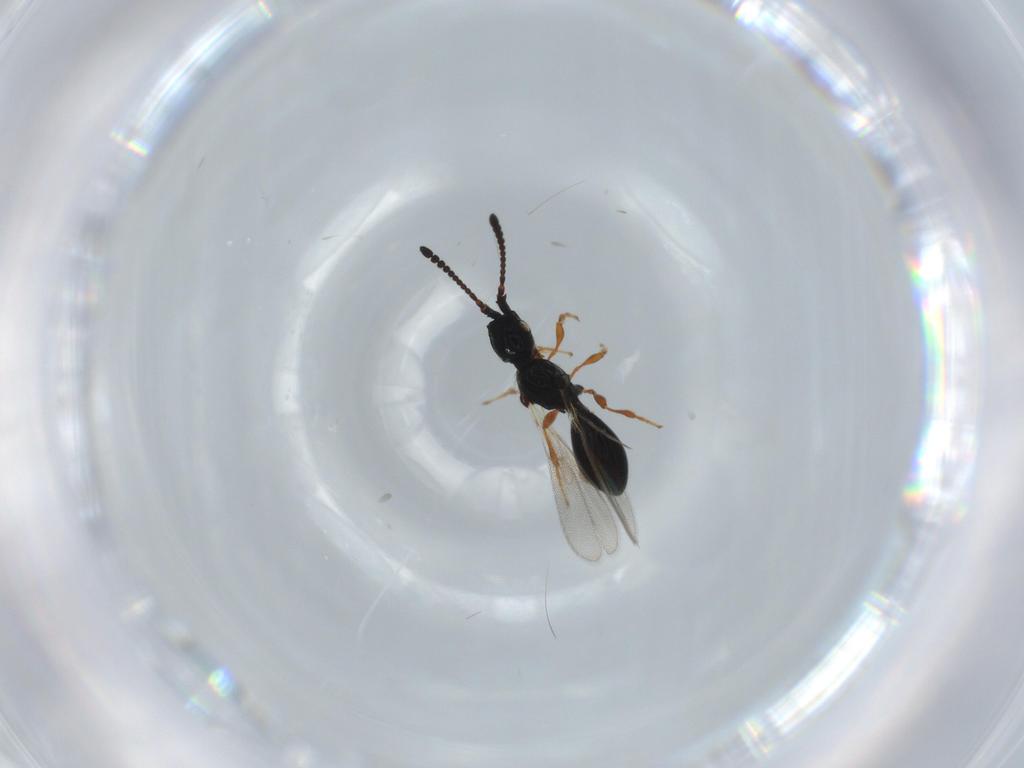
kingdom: Animalia
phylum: Arthropoda
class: Insecta
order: Hymenoptera
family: Diapriidae
